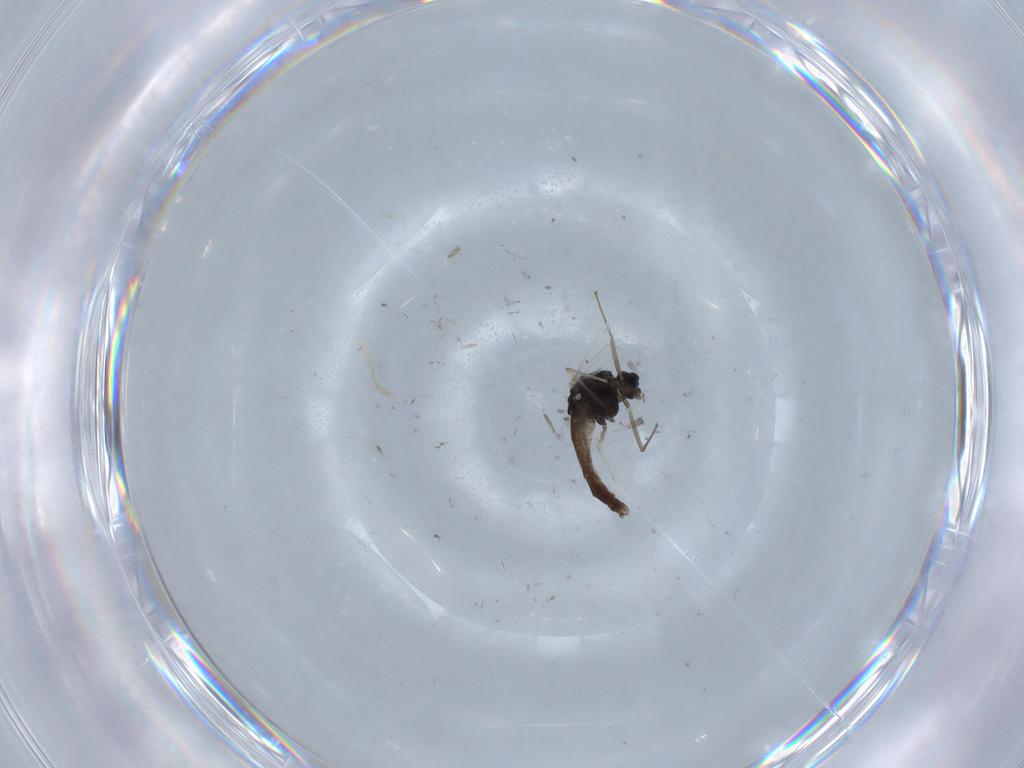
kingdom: Animalia
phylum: Arthropoda
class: Insecta
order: Diptera
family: Chironomidae
